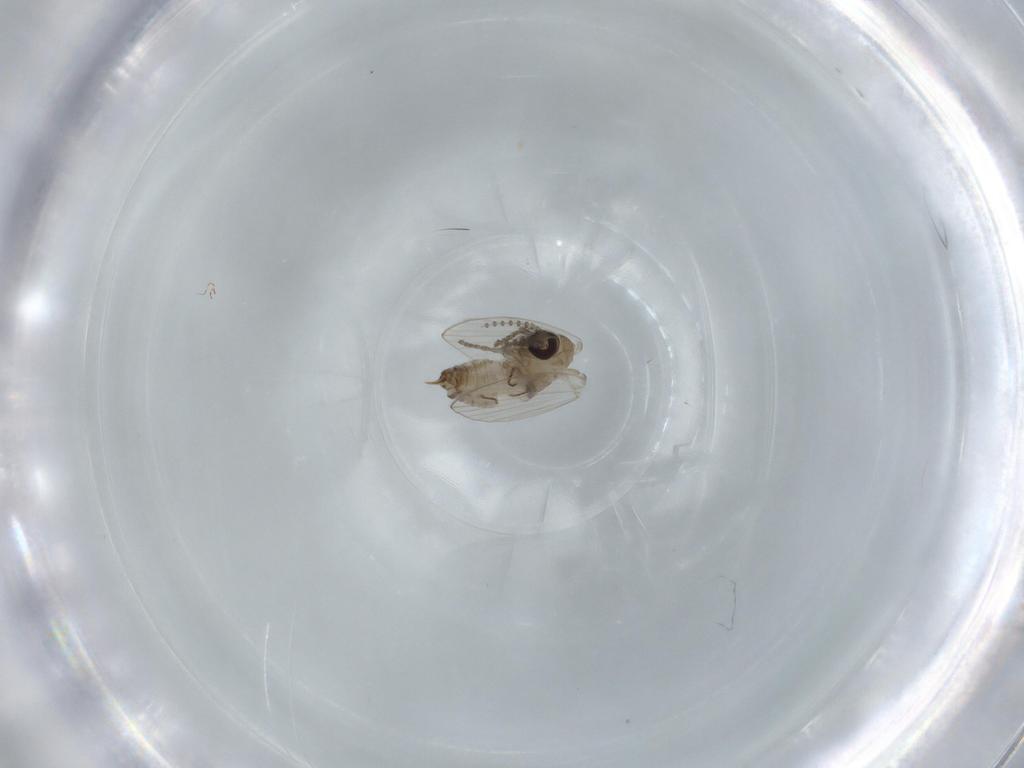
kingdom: Animalia
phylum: Arthropoda
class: Insecta
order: Diptera
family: Psychodidae
